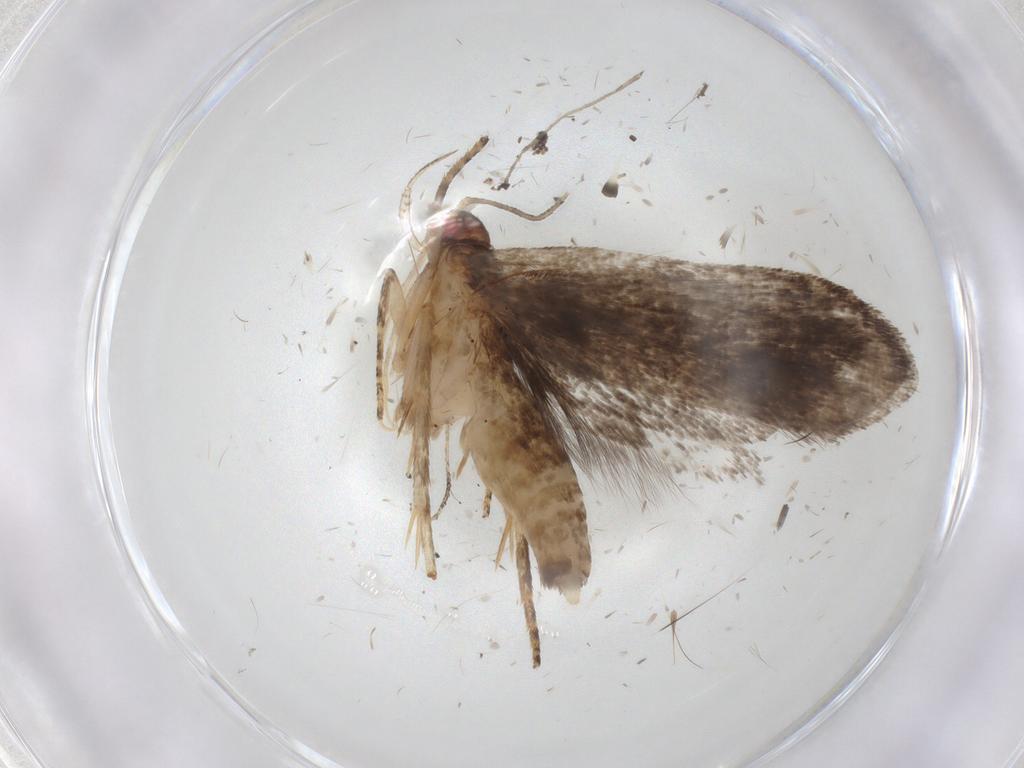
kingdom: Animalia
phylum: Arthropoda
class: Insecta
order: Lepidoptera
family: Gelechiidae
